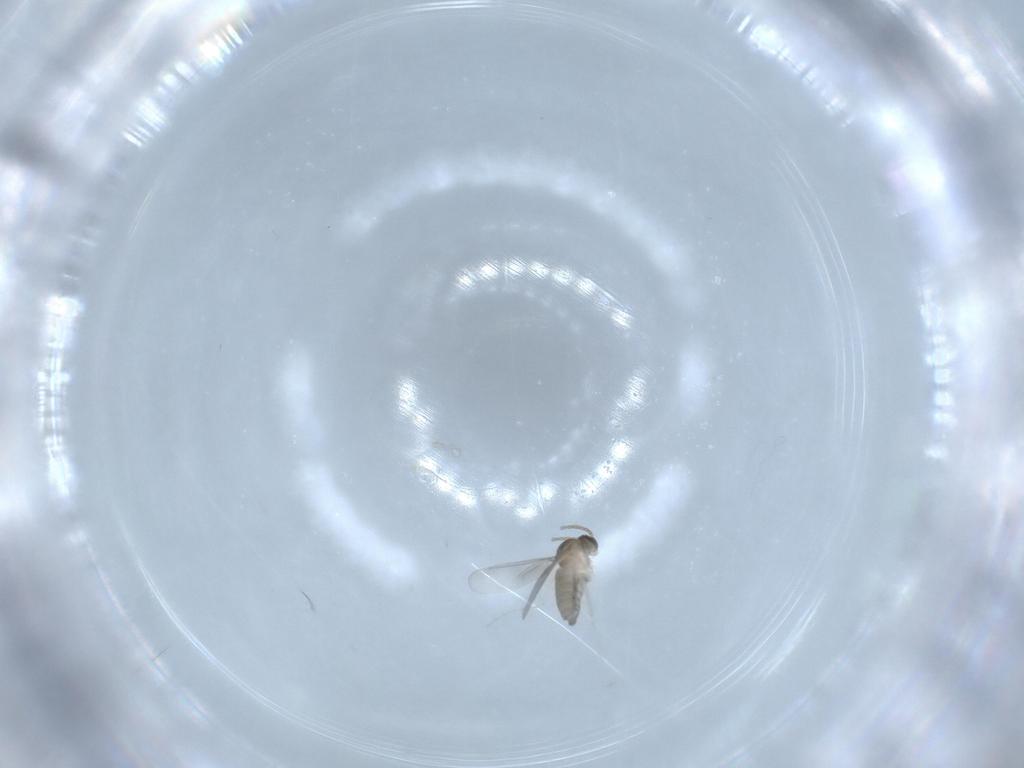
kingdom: Animalia
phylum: Arthropoda
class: Insecta
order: Diptera
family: Cecidomyiidae
